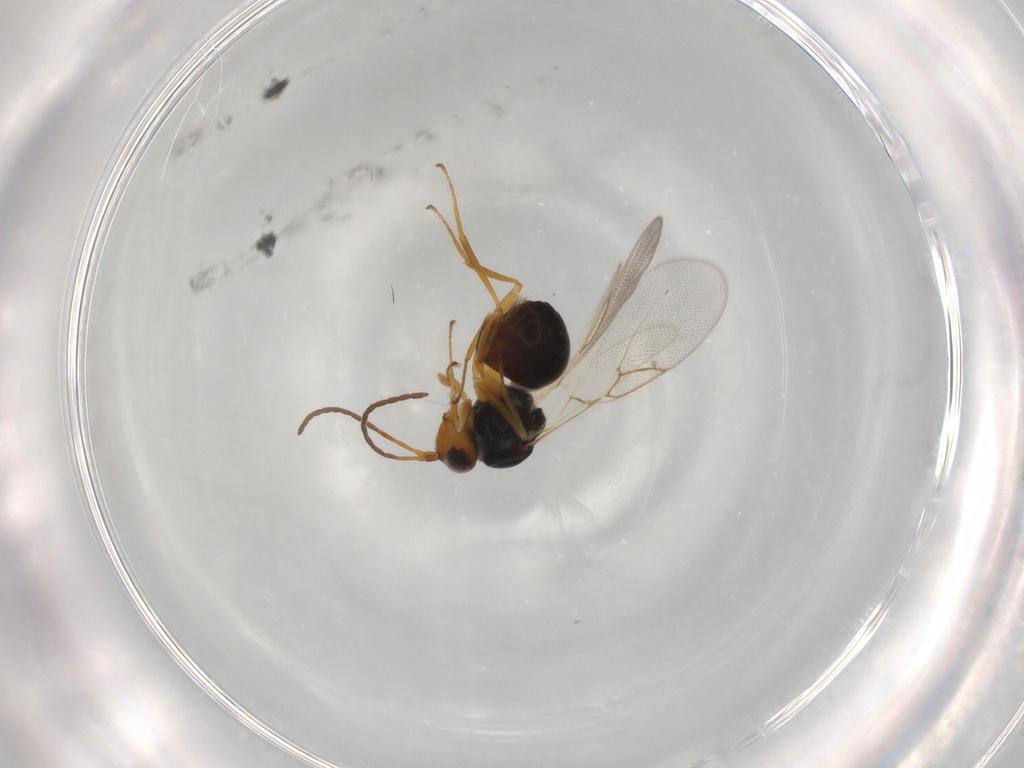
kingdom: Animalia
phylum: Arthropoda
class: Insecta
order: Hymenoptera
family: Figitidae
